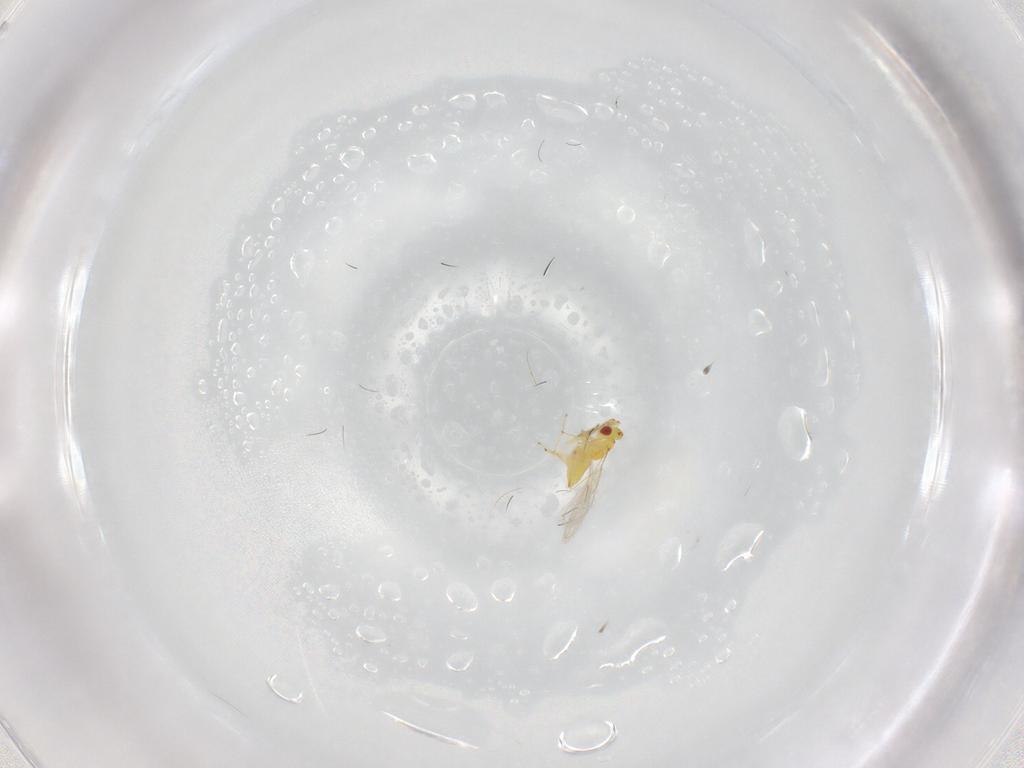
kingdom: Animalia
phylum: Arthropoda
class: Insecta
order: Hymenoptera
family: Eulophidae
